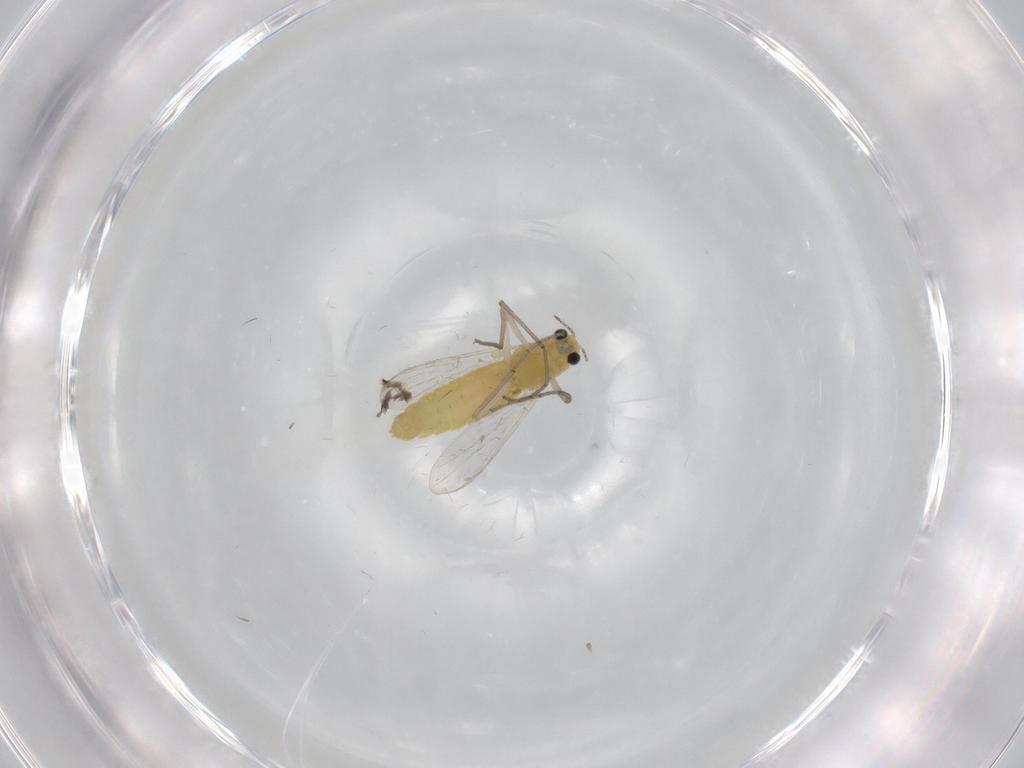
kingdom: Animalia
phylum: Arthropoda
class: Insecta
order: Diptera
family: Chironomidae
